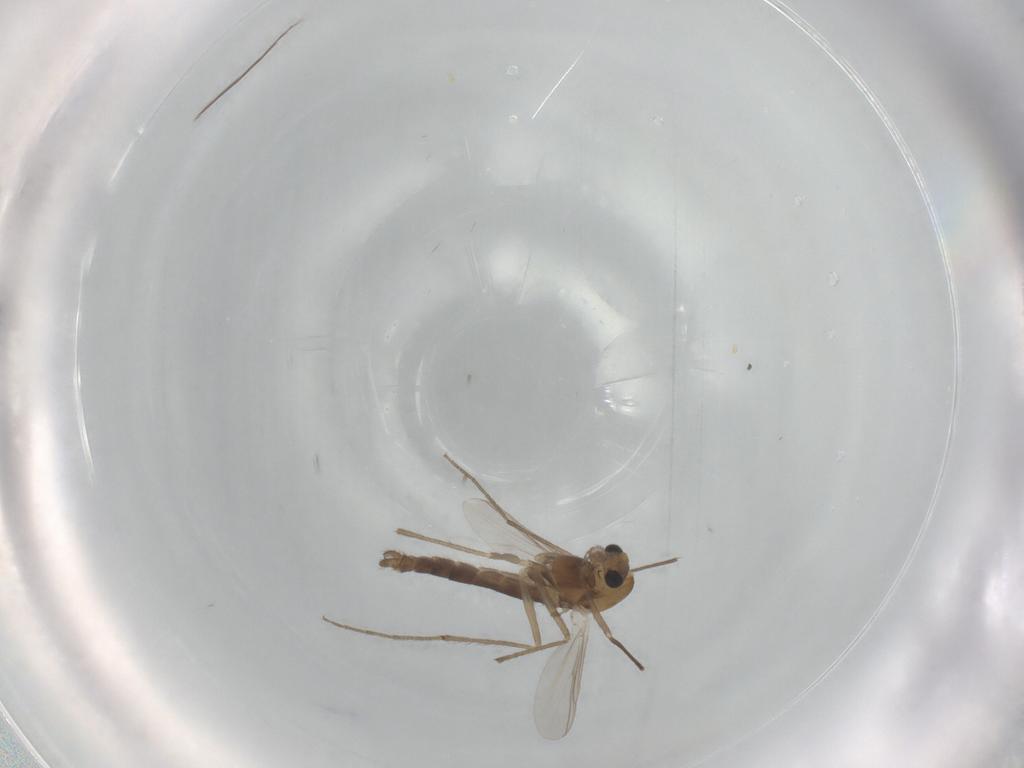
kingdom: Animalia
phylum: Arthropoda
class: Insecta
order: Diptera
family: Chironomidae
